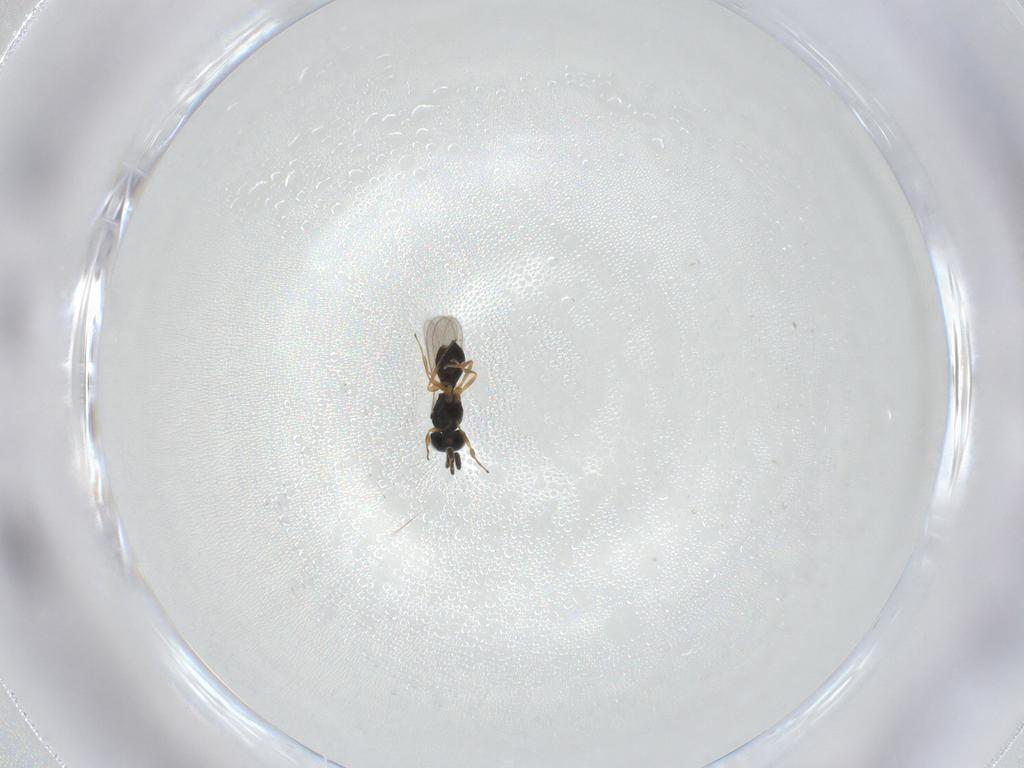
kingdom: Animalia
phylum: Arthropoda
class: Insecta
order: Hymenoptera
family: Scelionidae
